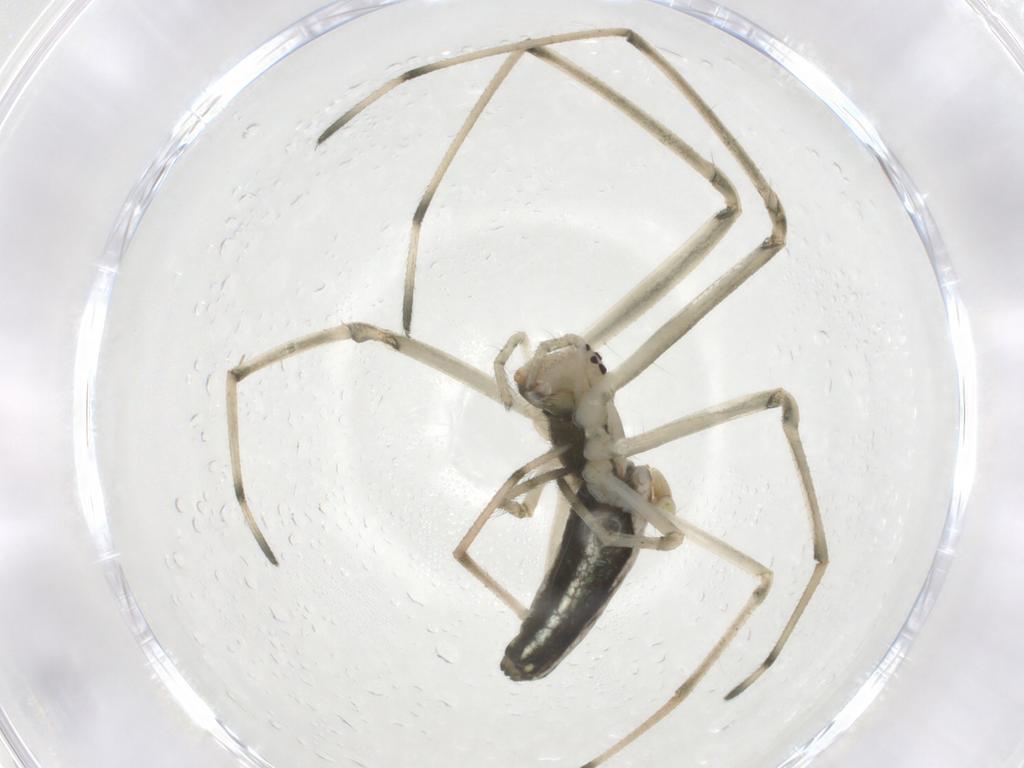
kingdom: Animalia
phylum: Arthropoda
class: Arachnida
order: Araneae
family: Tetragnathidae
